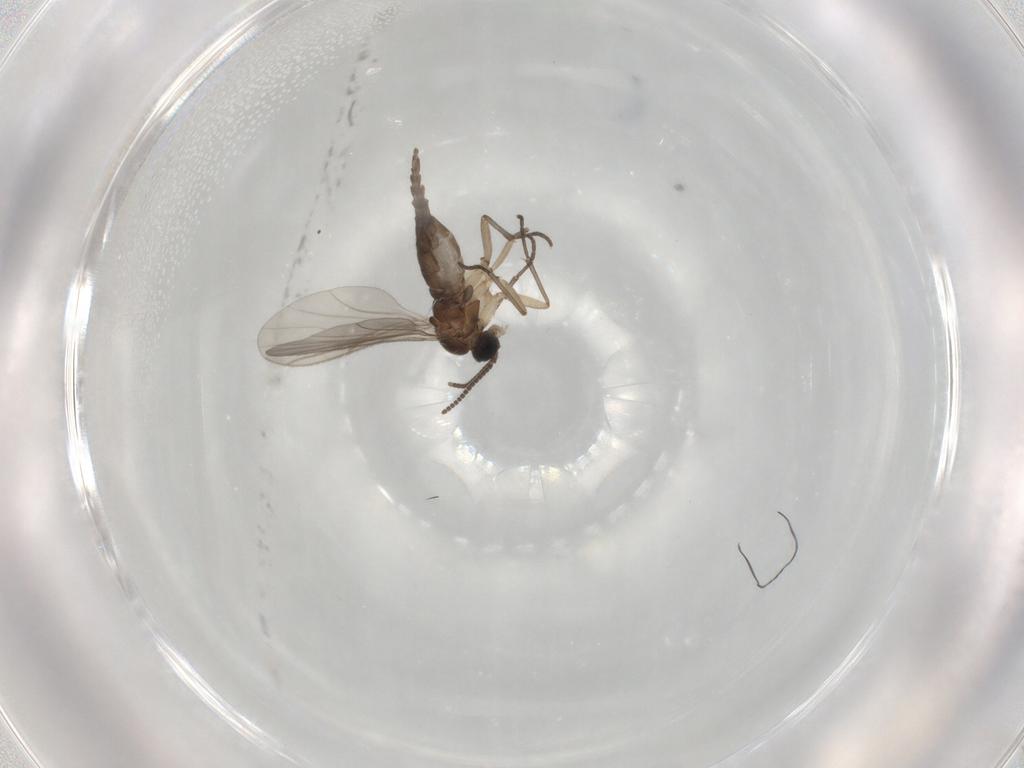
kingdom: Animalia
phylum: Arthropoda
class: Insecta
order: Diptera
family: Sciaridae
